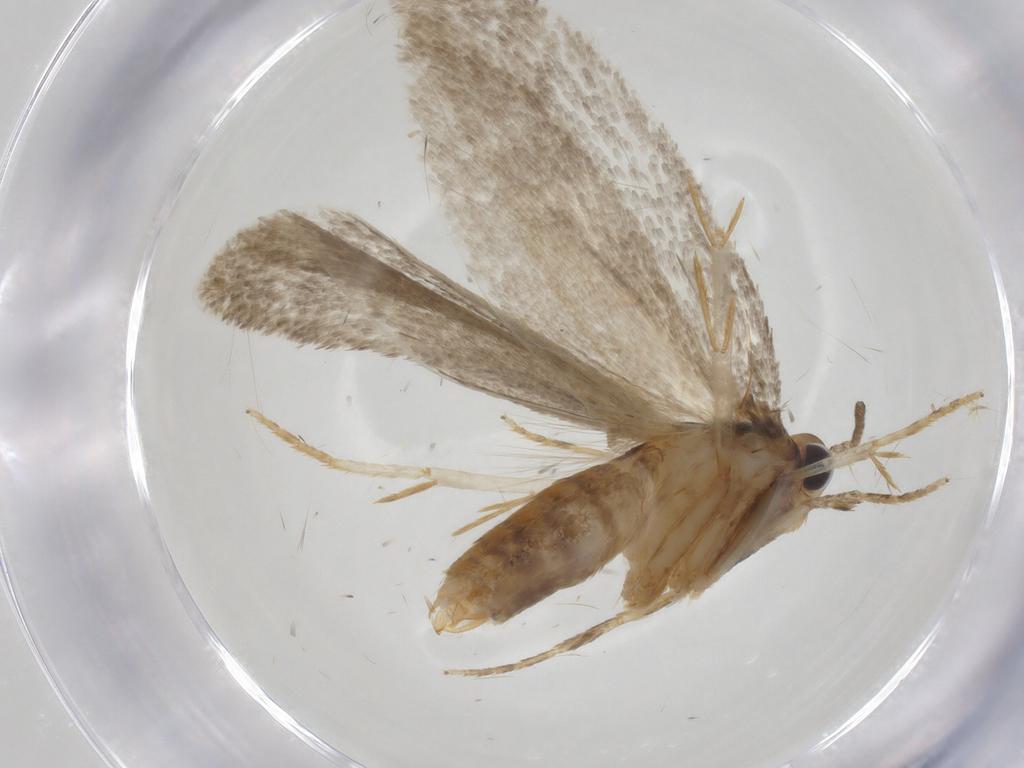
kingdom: Animalia
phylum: Arthropoda
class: Insecta
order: Lepidoptera
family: Oecophoridae
